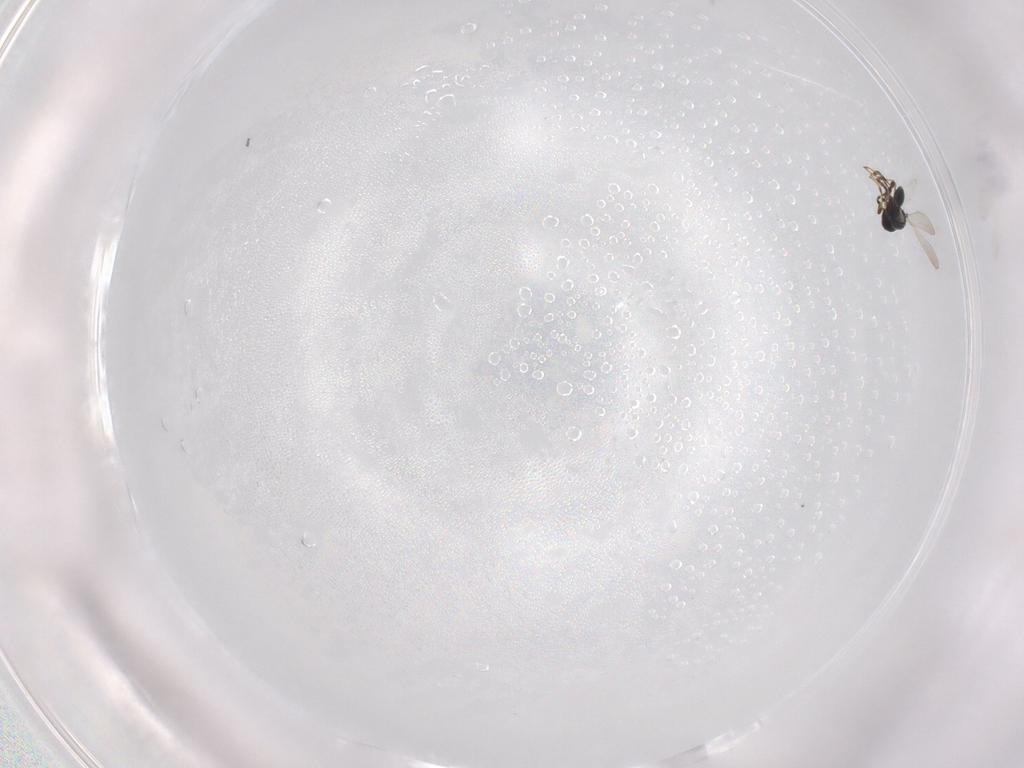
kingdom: Animalia
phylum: Arthropoda
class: Insecta
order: Hymenoptera
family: Platygastridae
